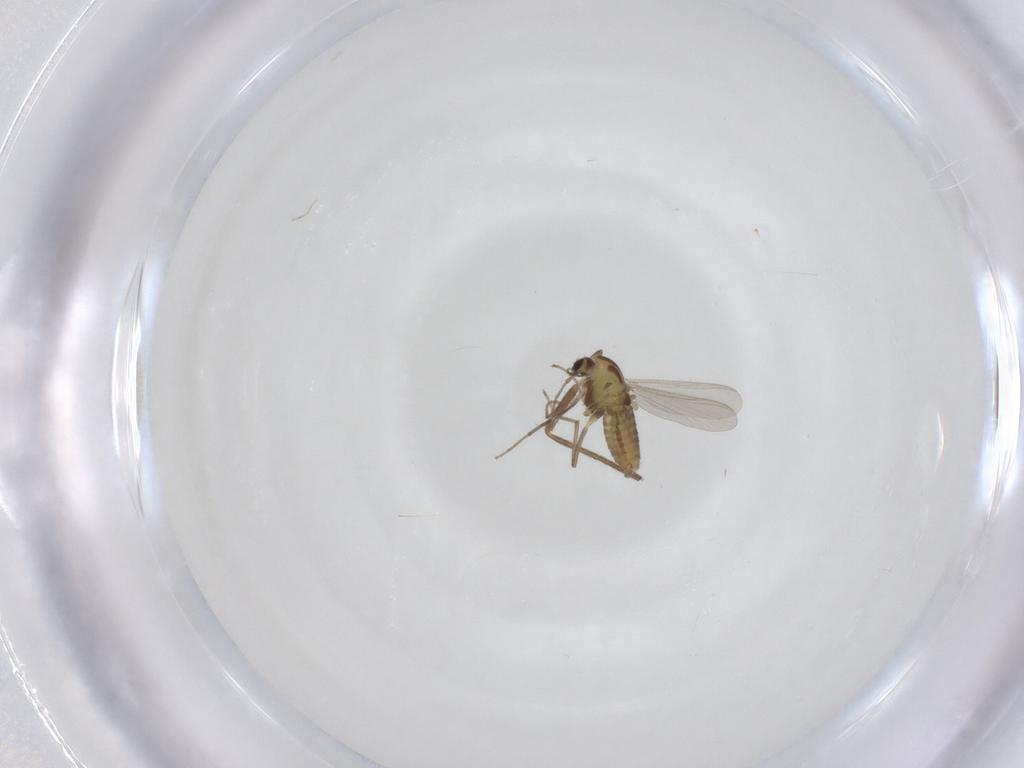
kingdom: Animalia
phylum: Arthropoda
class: Insecta
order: Diptera
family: Chironomidae
